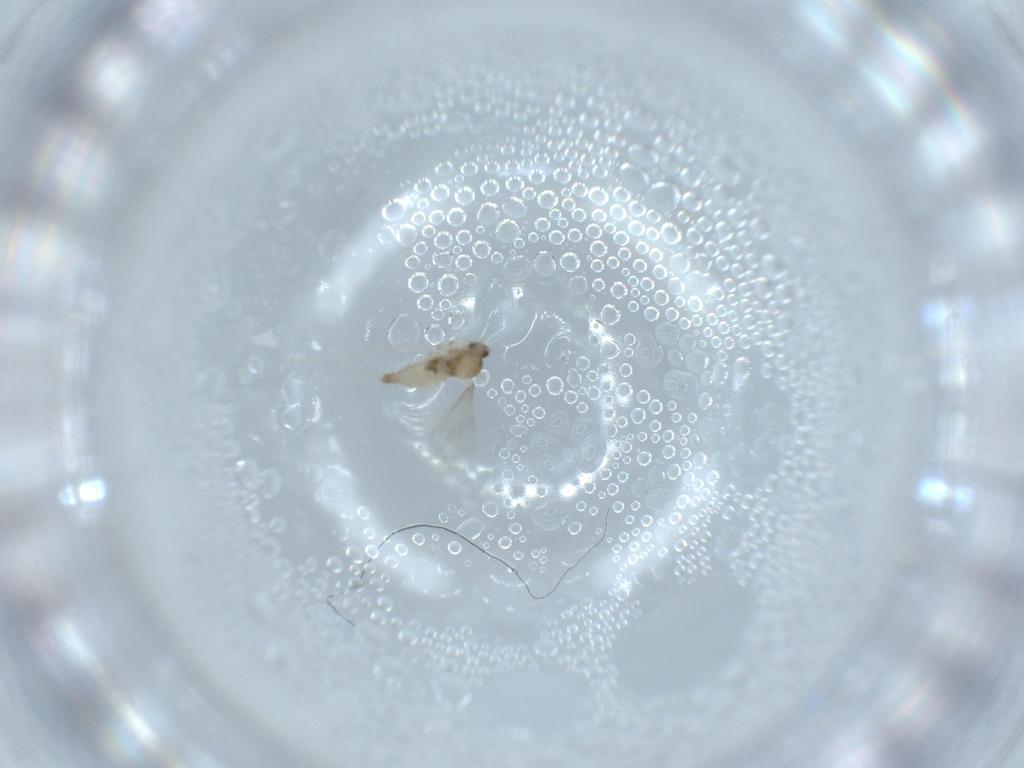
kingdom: Animalia
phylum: Arthropoda
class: Insecta
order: Diptera
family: Cecidomyiidae
